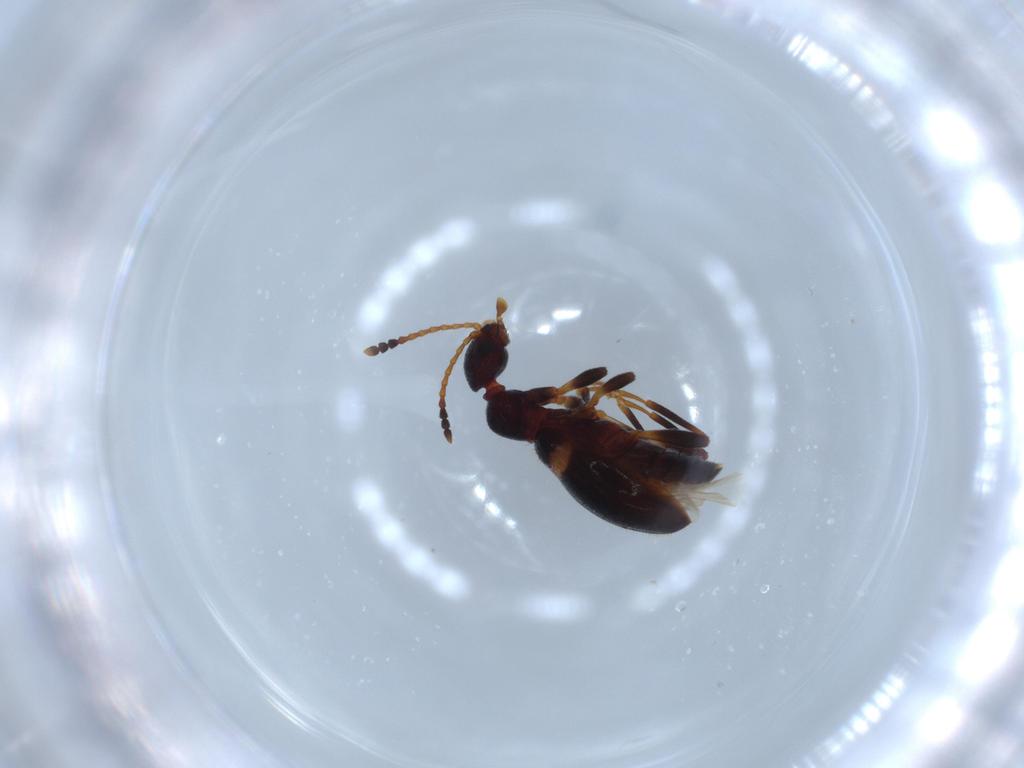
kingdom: Animalia
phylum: Arthropoda
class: Insecta
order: Coleoptera
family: Anthicidae
